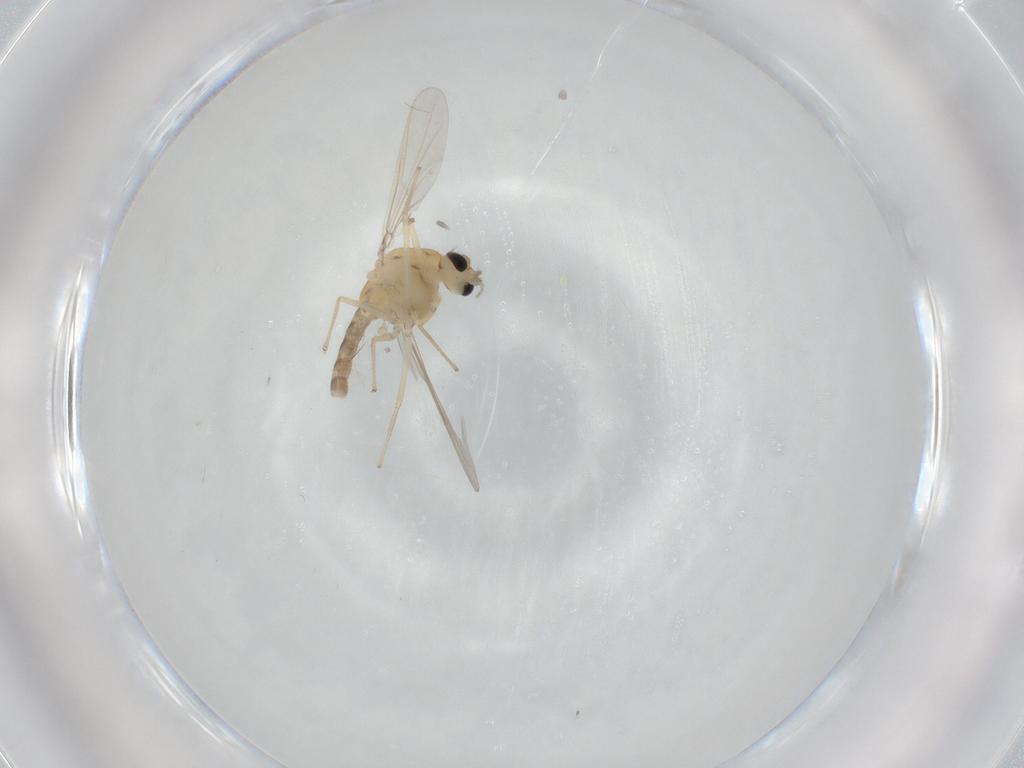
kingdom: Animalia
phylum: Arthropoda
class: Insecta
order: Diptera
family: Chironomidae
